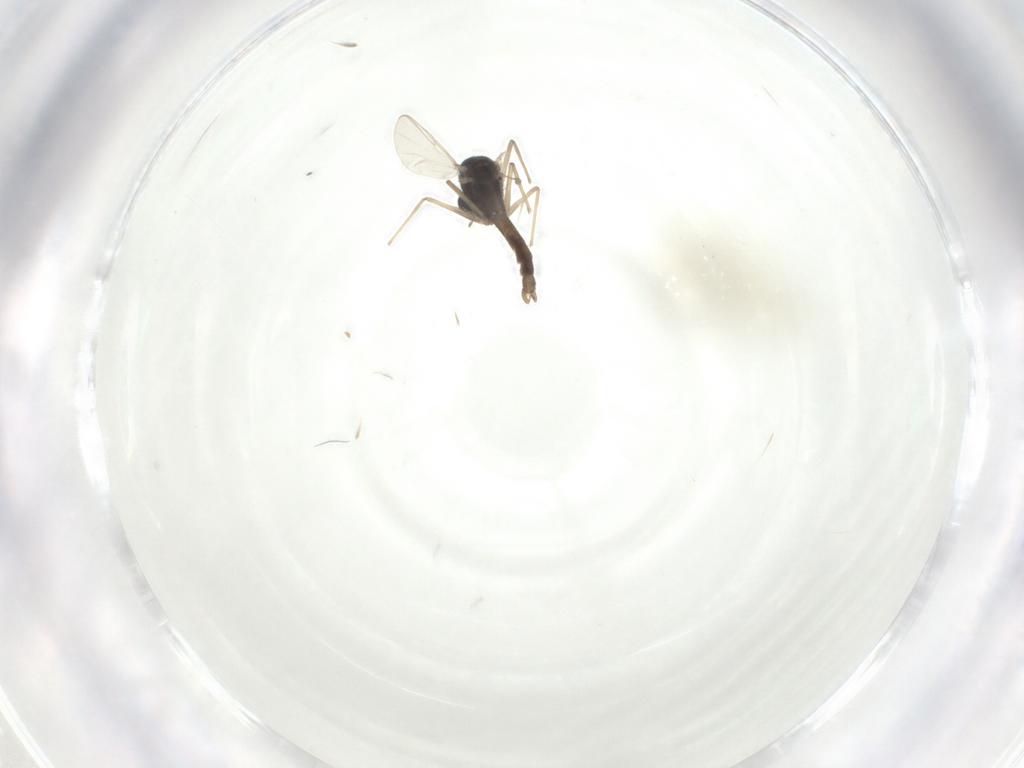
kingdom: Animalia
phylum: Arthropoda
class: Insecta
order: Diptera
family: Chironomidae
